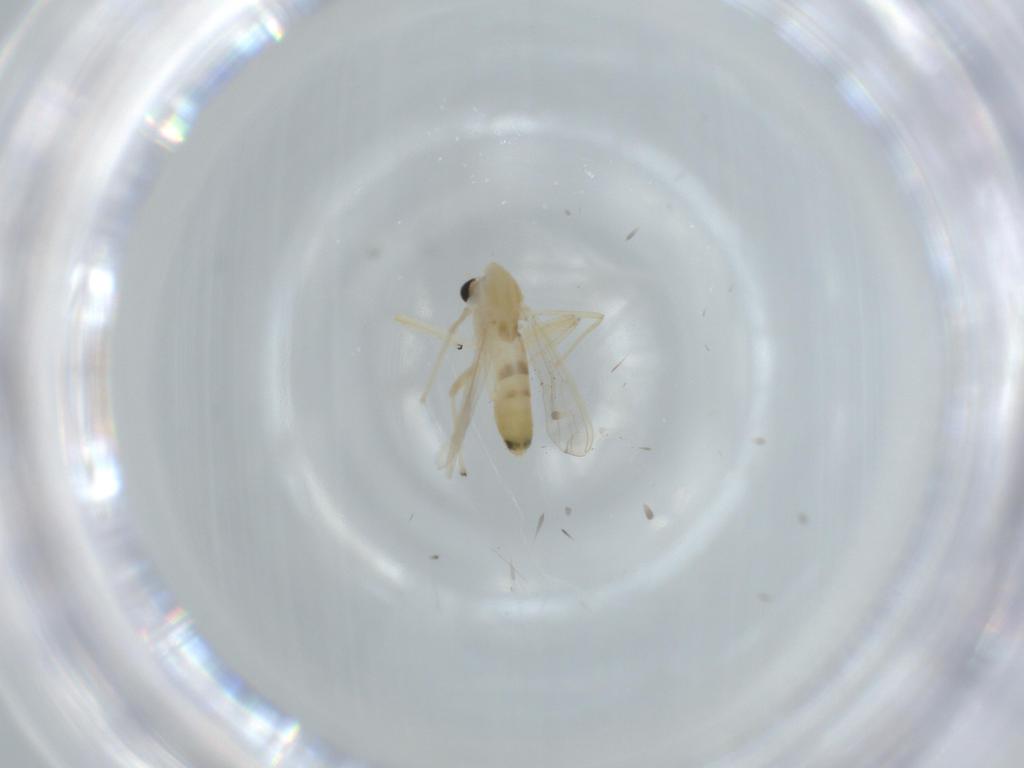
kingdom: Animalia
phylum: Arthropoda
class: Insecta
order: Diptera
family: Chironomidae
